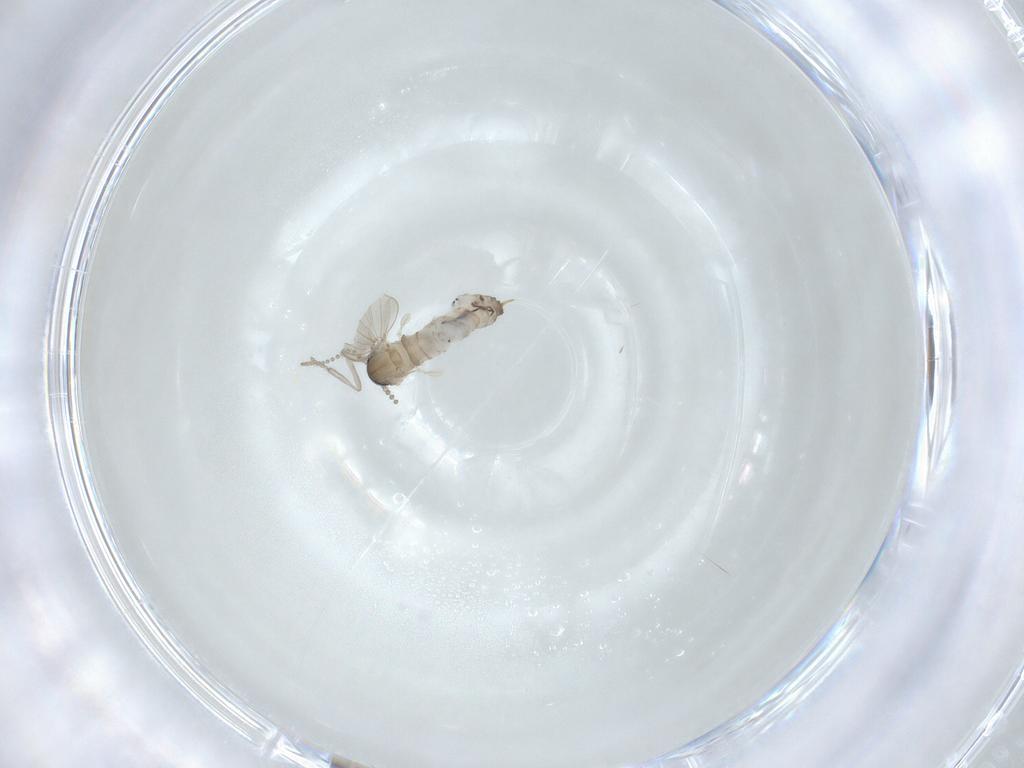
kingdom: Animalia
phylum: Arthropoda
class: Insecta
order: Diptera
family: Psychodidae
